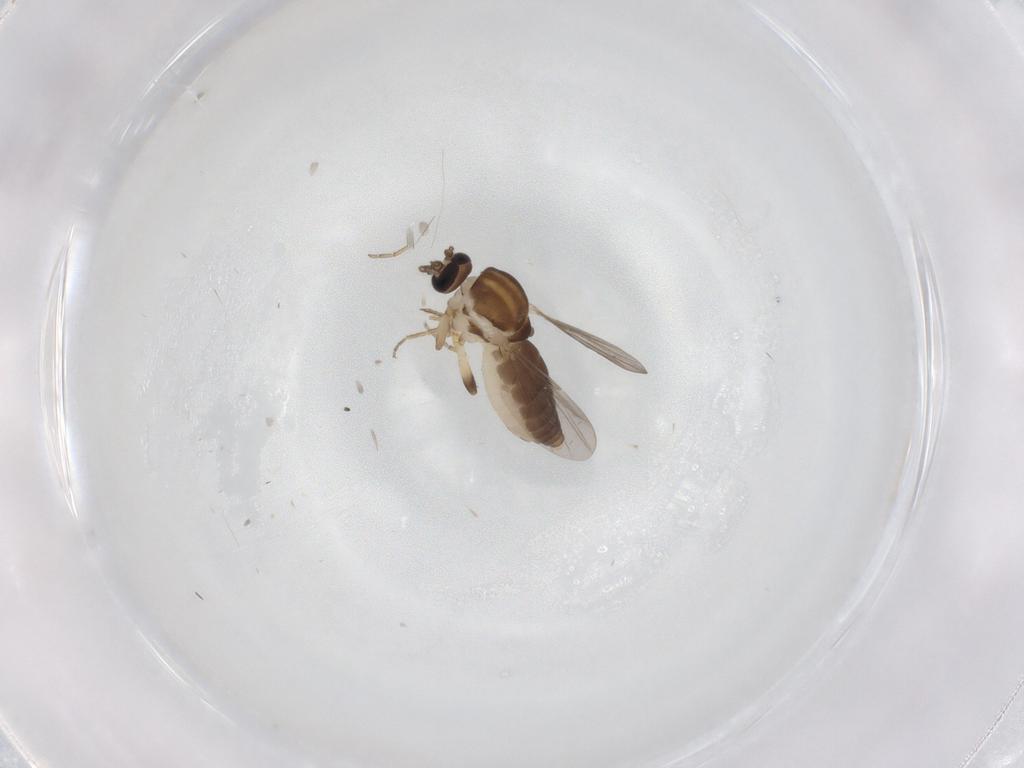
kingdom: Animalia
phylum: Arthropoda
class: Insecta
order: Diptera
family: Ceratopogonidae
